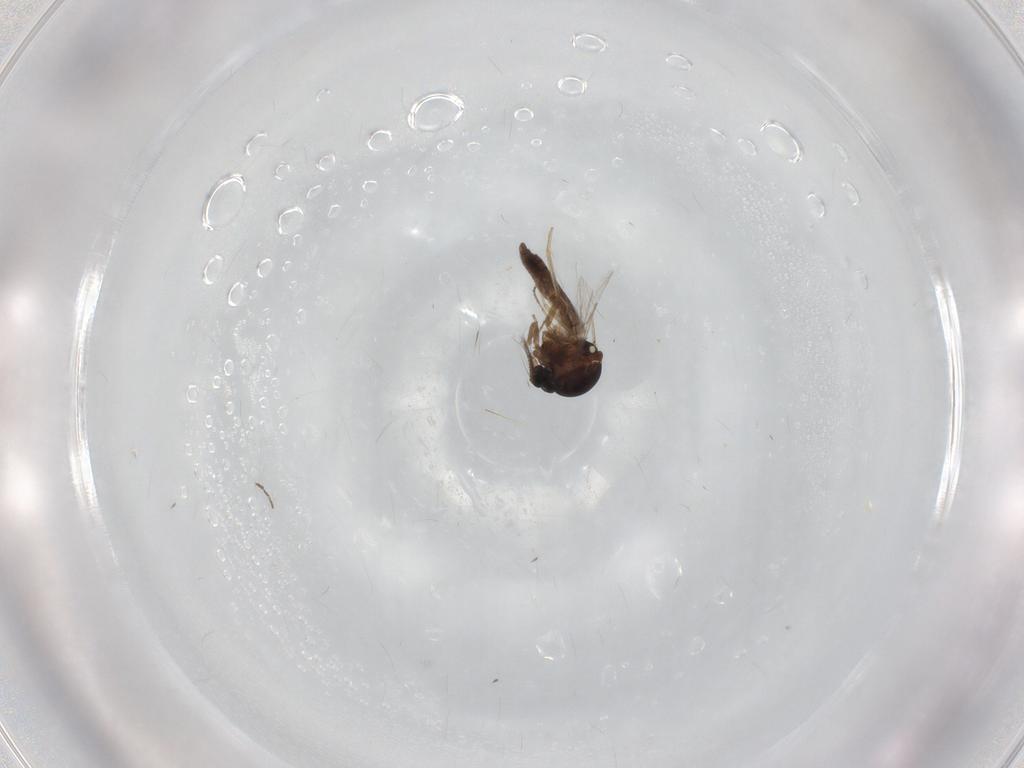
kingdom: Animalia
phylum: Arthropoda
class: Insecta
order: Diptera
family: Ceratopogonidae
